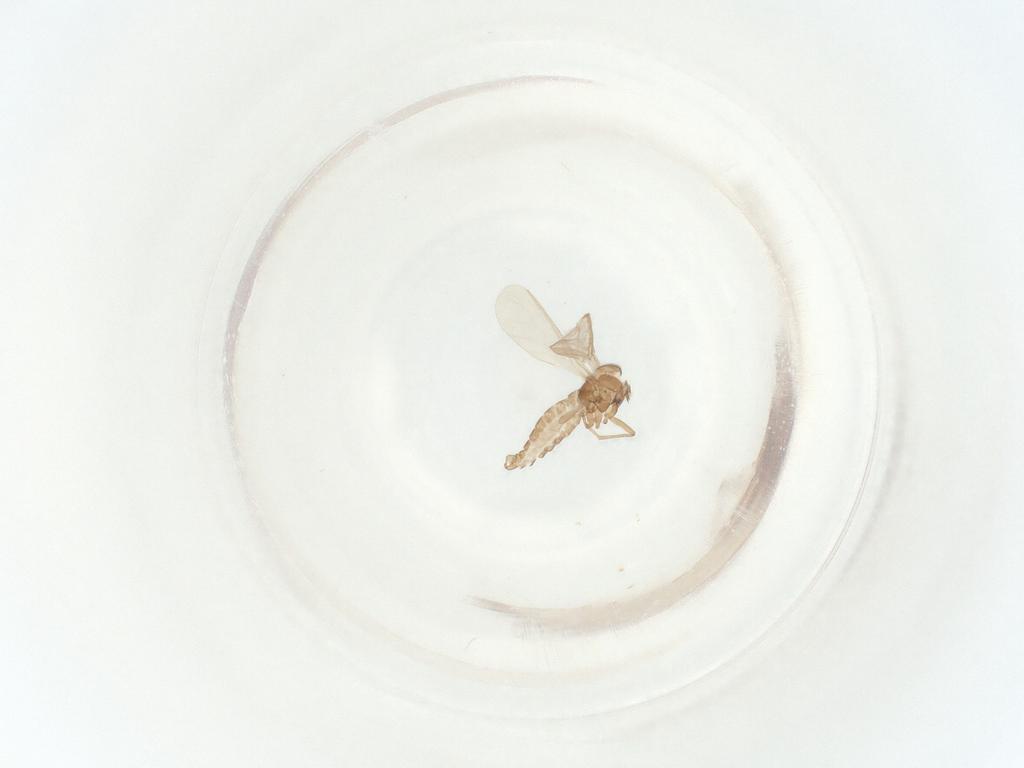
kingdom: Animalia
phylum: Arthropoda
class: Insecta
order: Diptera
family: Sciaridae
